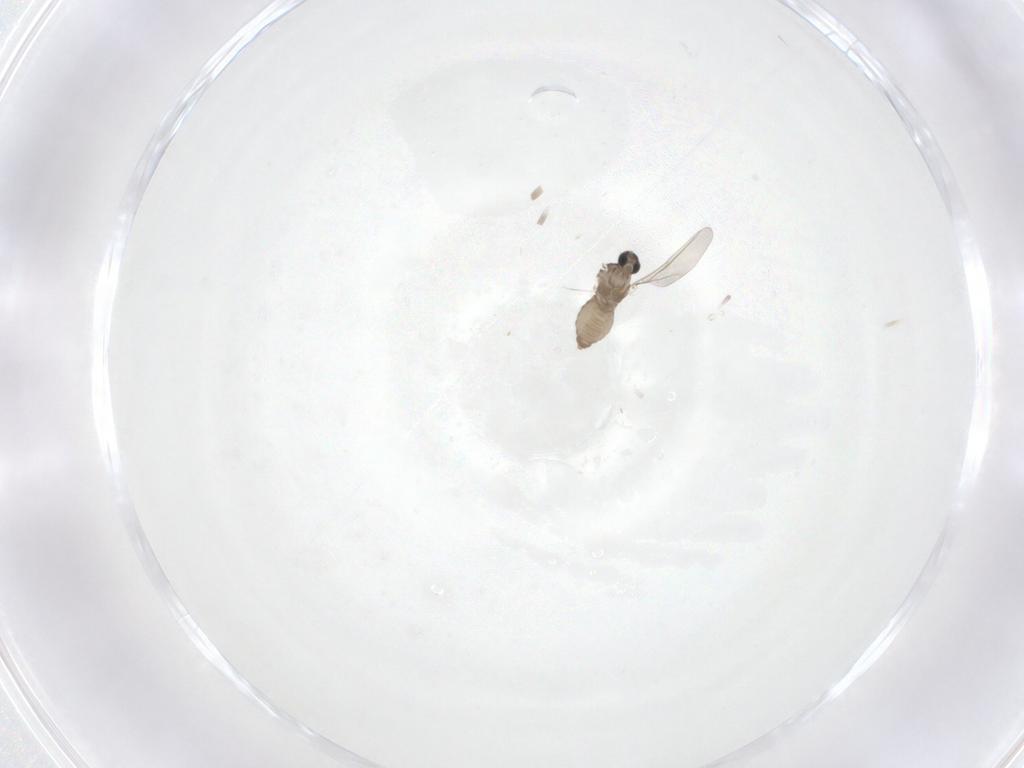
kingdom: Animalia
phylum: Arthropoda
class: Insecta
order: Diptera
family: Cecidomyiidae
